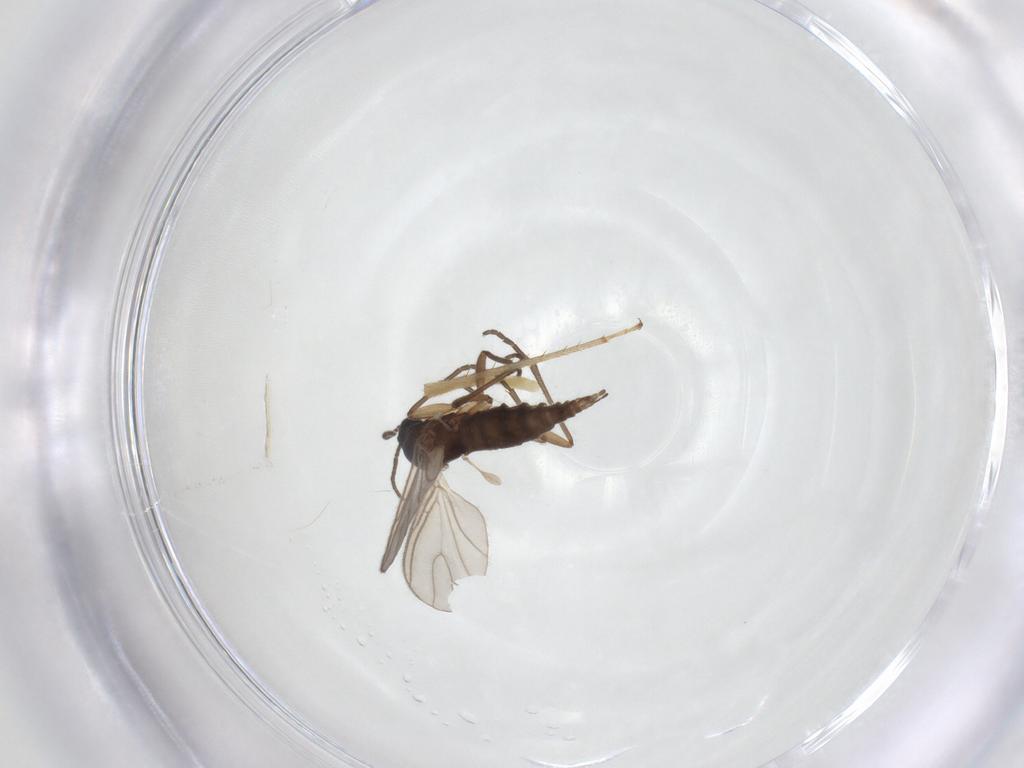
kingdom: Animalia
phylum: Arthropoda
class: Insecta
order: Diptera
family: Sciaridae
